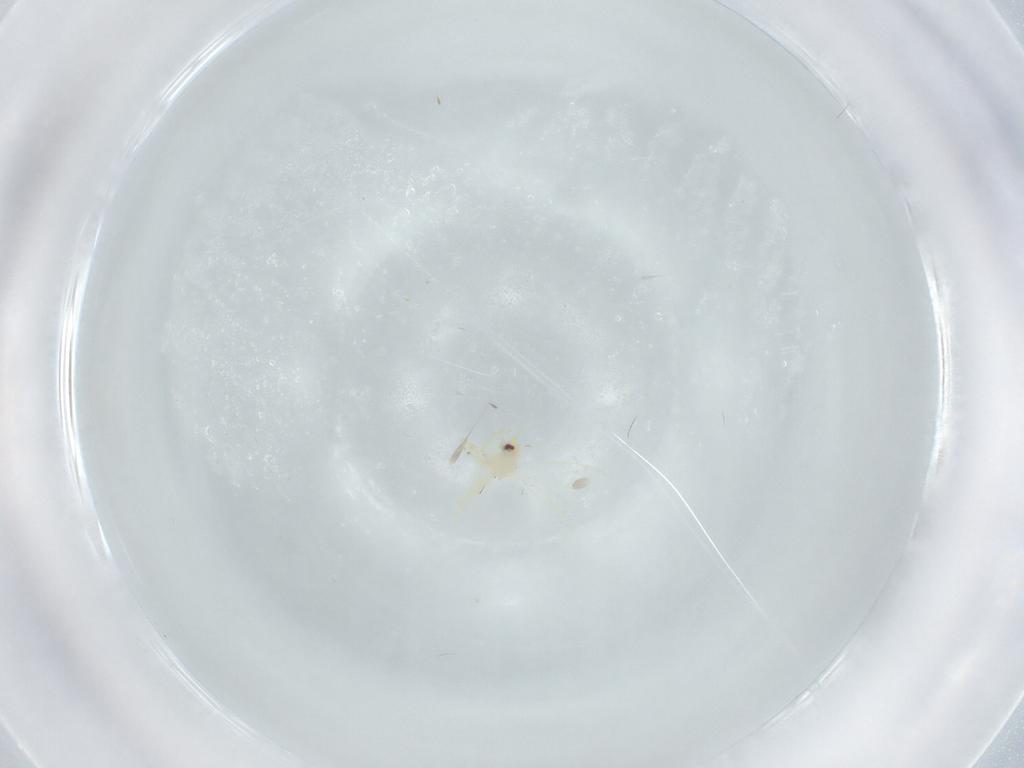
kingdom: Animalia
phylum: Arthropoda
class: Insecta
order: Hemiptera
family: Aleyrodidae
